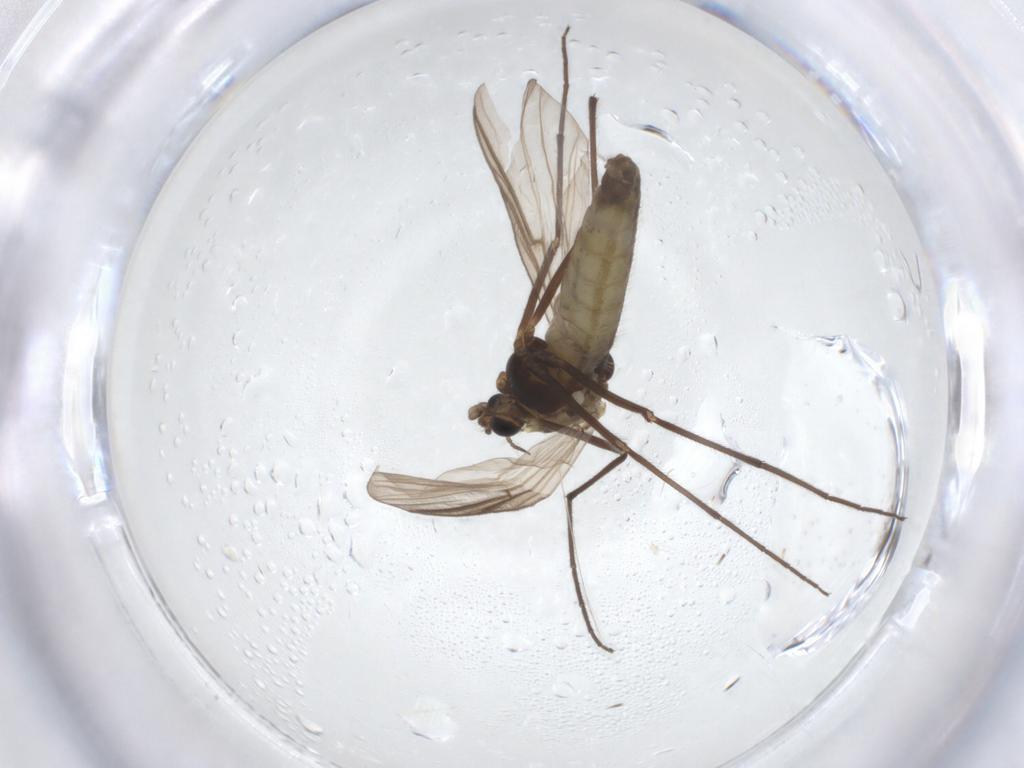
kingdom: Animalia
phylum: Arthropoda
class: Insecta
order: Diptera
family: Chironomidae
